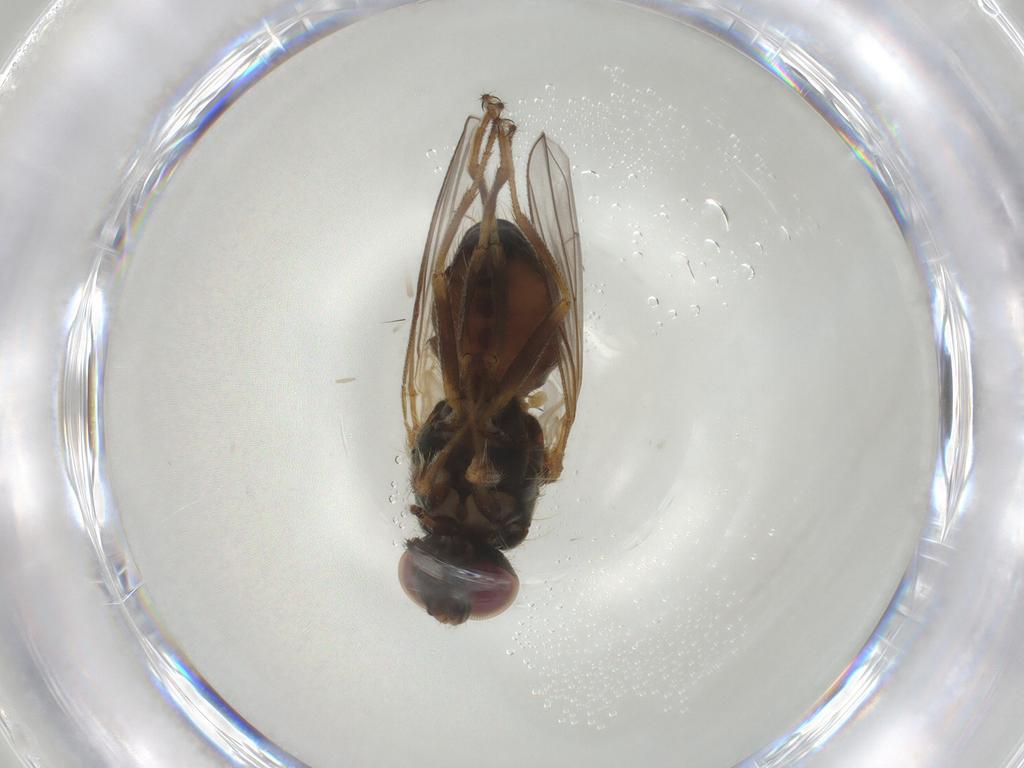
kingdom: Animalia
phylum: Arthropoda
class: Insecta
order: Diptera
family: Muscidae
